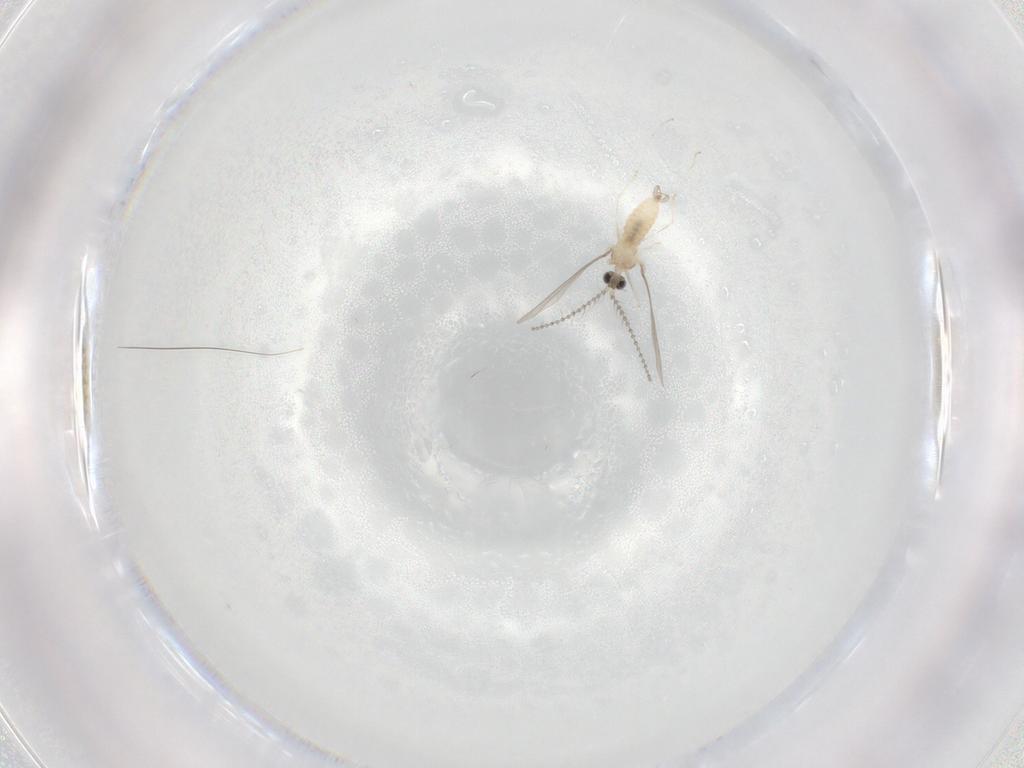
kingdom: Animalia
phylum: Arthropoda
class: Insecta
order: Diptera
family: Cecidomyiidae
